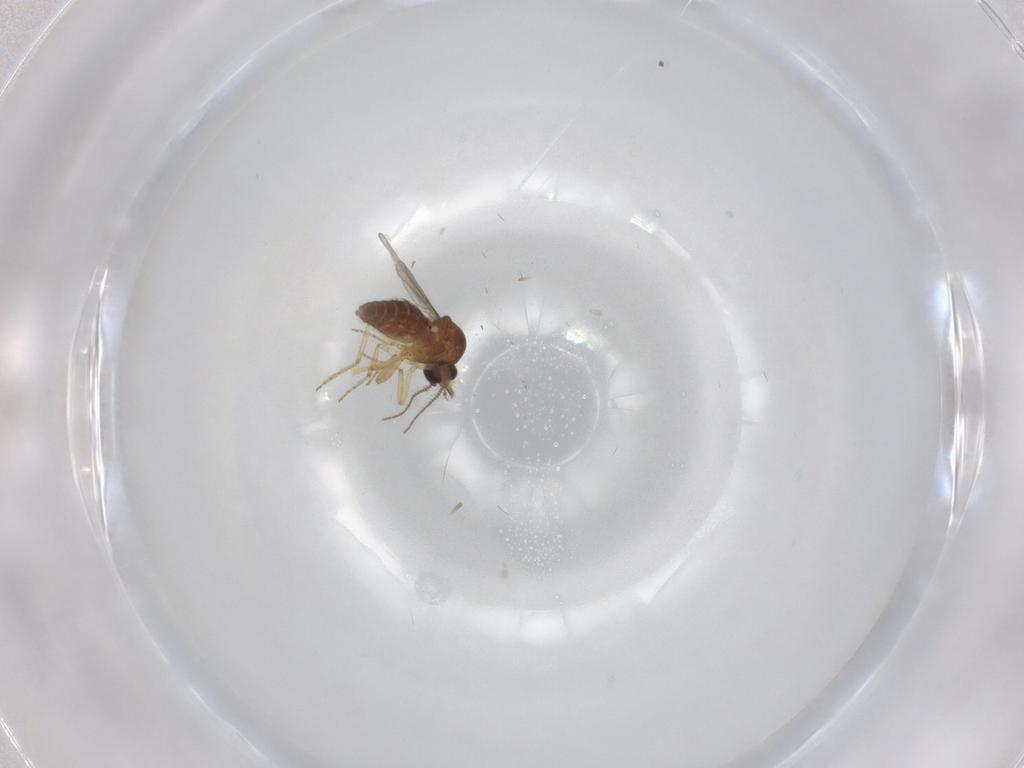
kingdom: Animalia
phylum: Arthropoda
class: Insecta
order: Diptera
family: Ceratopogonidae
